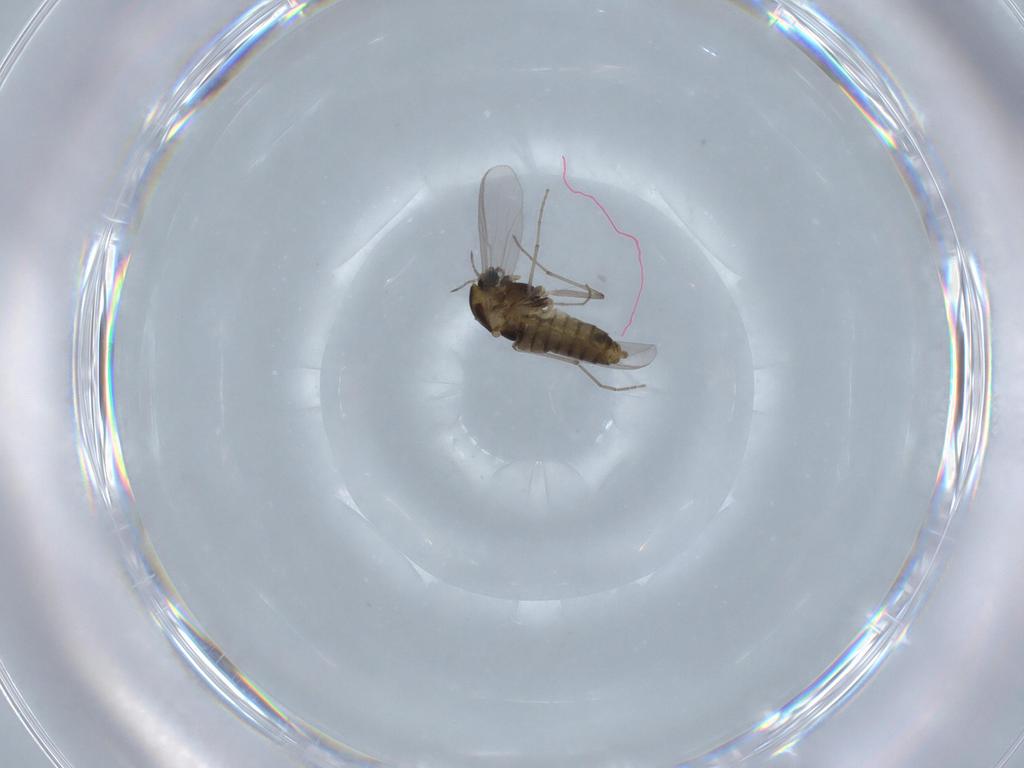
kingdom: Animalia
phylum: Arthropoda
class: Insecta
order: Diptera
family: Chironomidae
